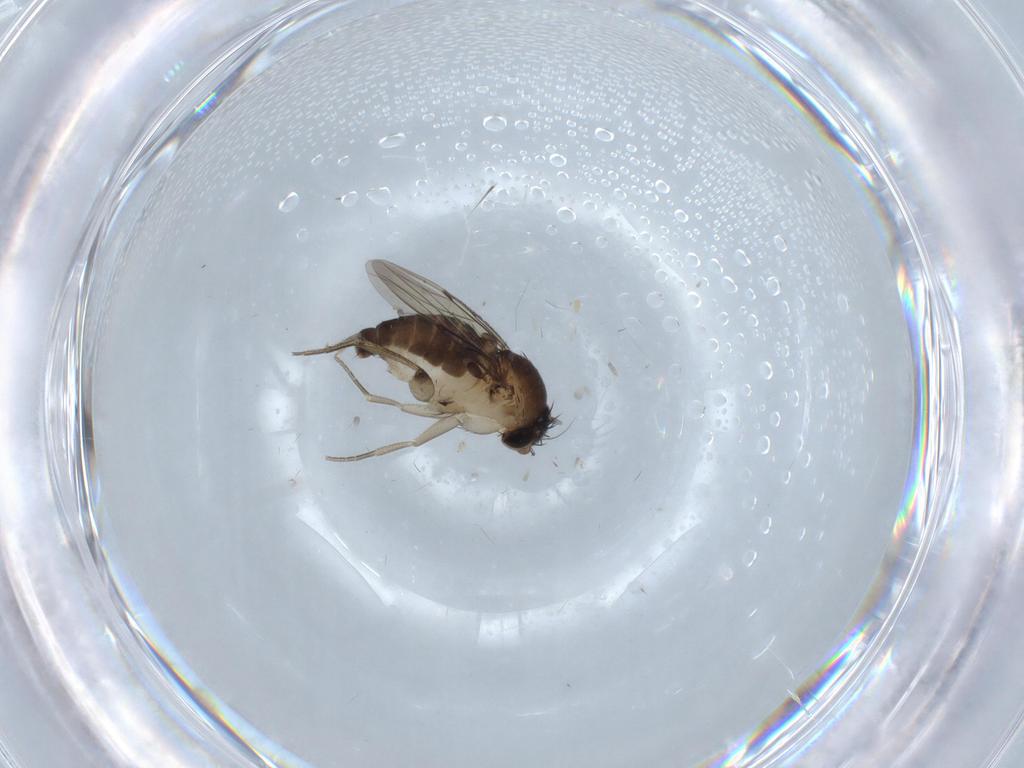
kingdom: Animalia
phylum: Arthropoda
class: Insecta
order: Diptera
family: Phoridae
